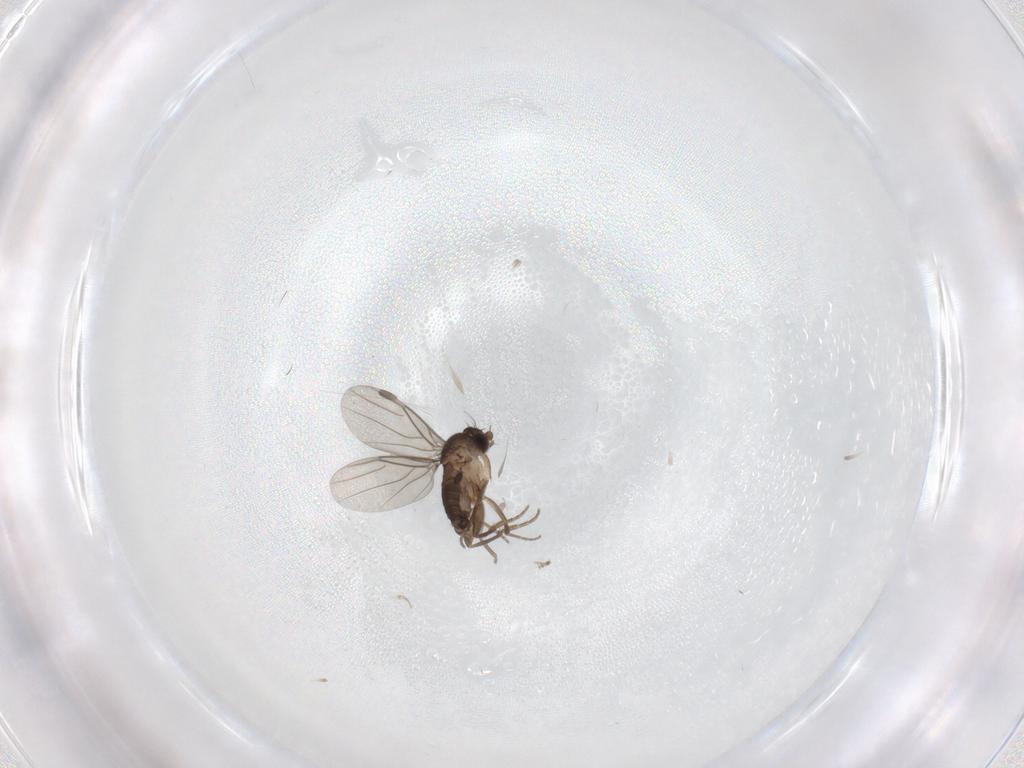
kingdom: Animalia
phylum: Arthropoda
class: Insecta
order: Diptera
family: Phoridae
